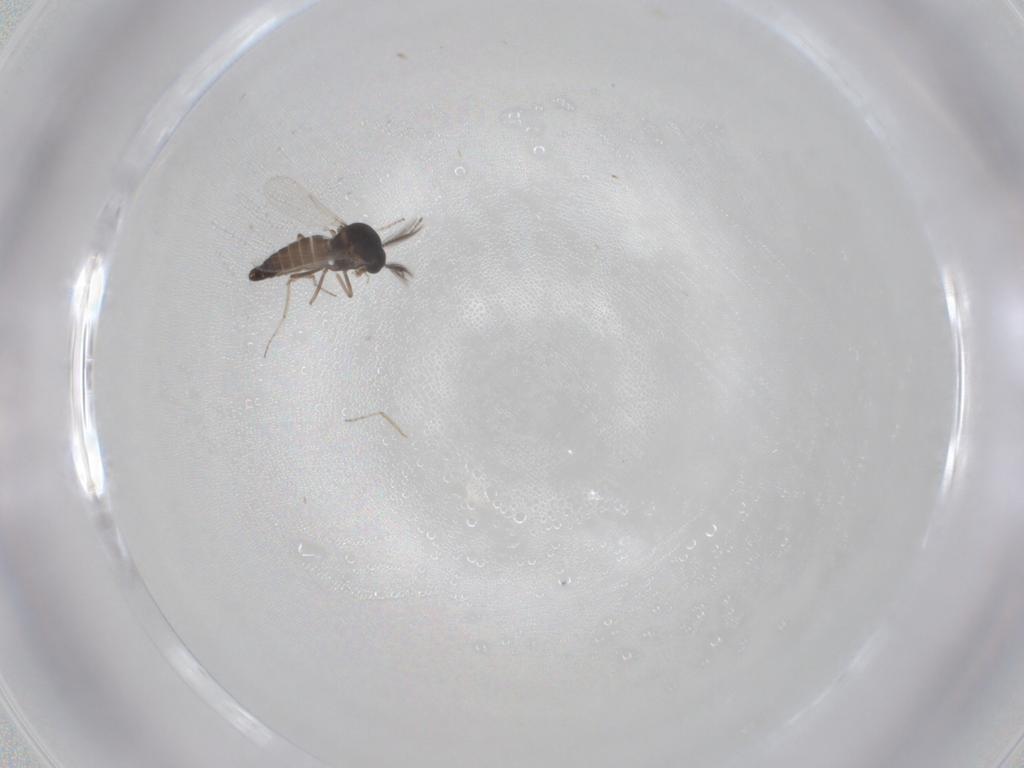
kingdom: Animalia
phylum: Arthropoda
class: Insecta
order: Diptera
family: Ceratopogonidae
